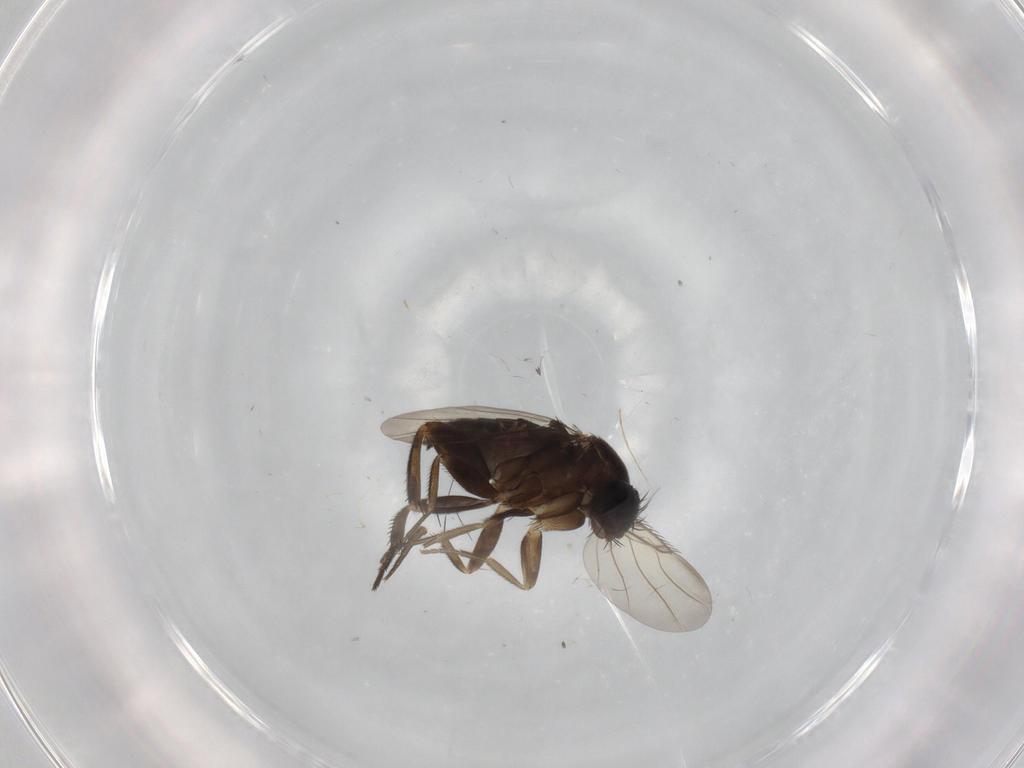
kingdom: Animalia
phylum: Arthropoda
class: Insecta
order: Diptera
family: Phoridae
